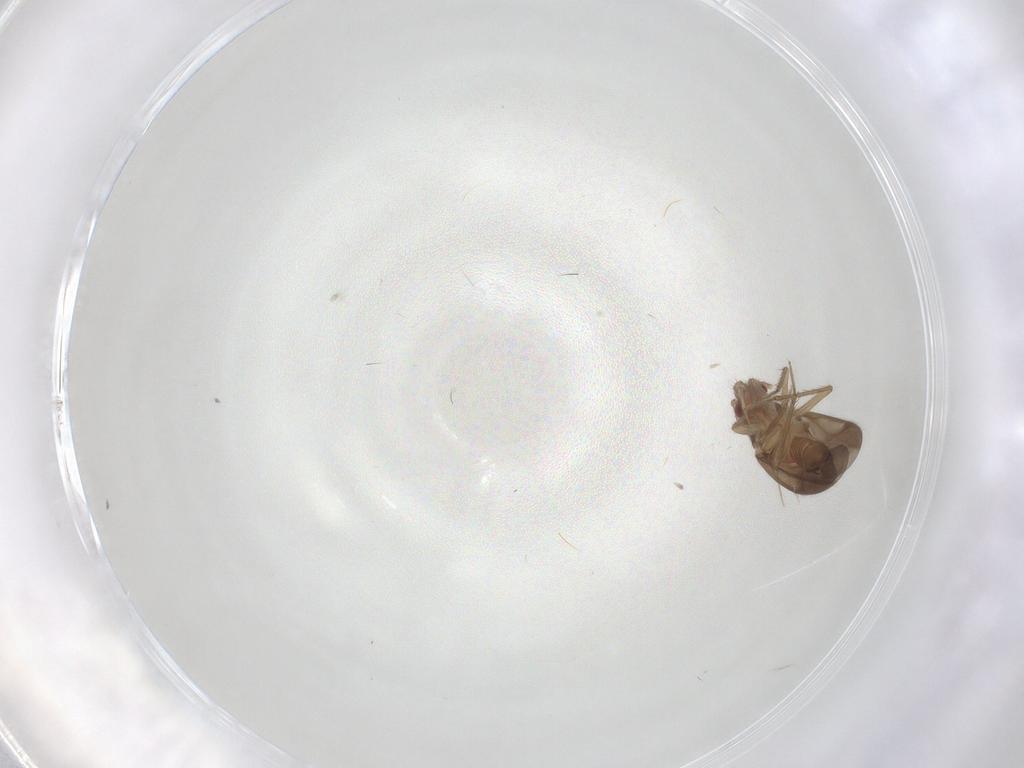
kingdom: Animalia
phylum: Arthropoda
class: Insecta
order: Hemiptera
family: Ceratocombidae
